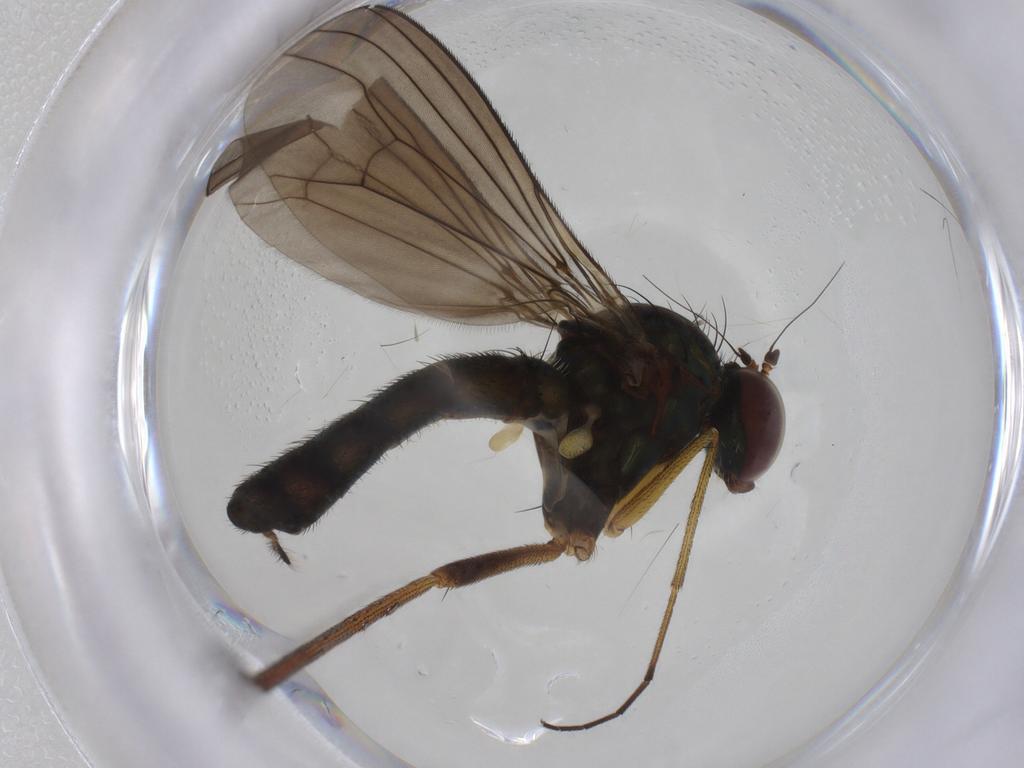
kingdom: Animalia
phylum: Arthropoda
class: Insecta
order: Diptera
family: Dolichopodidae
